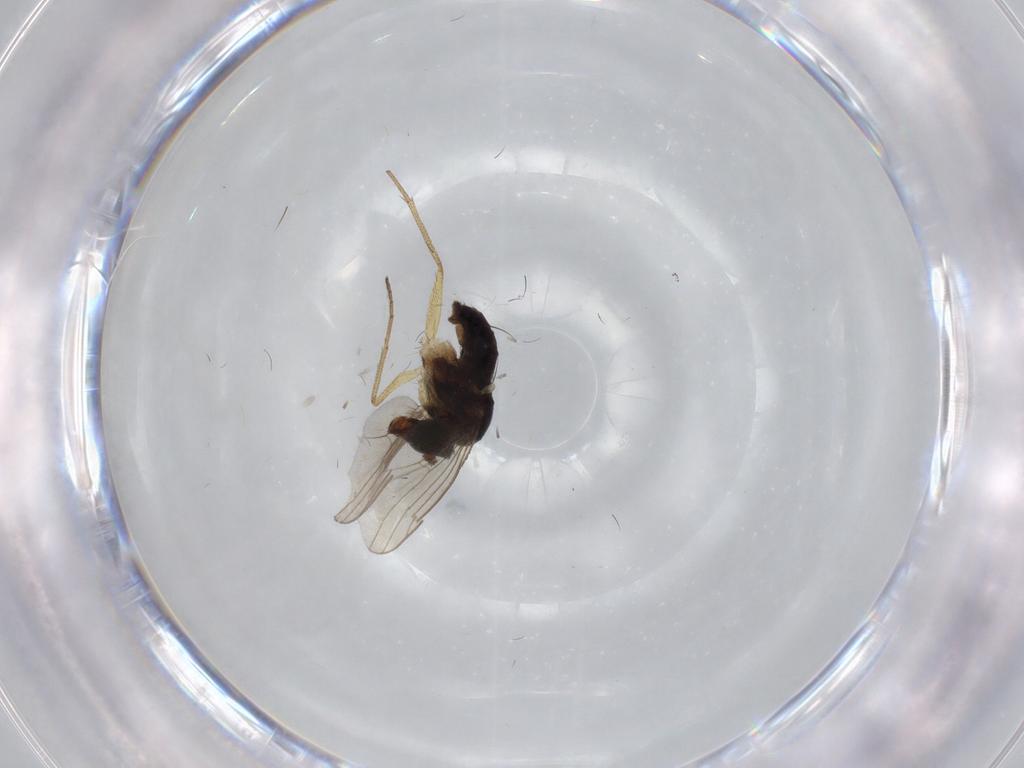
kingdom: Animalia
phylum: Arthropoda
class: Insecta
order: Diptera
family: Dolichopodidae
